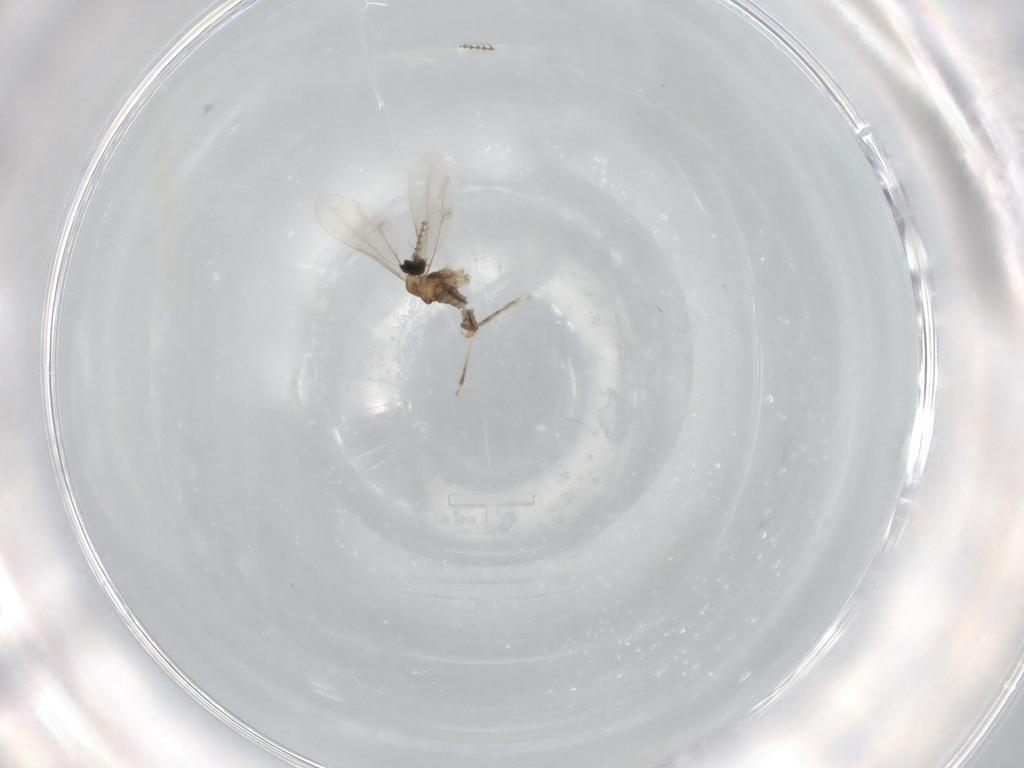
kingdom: Animalia
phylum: Arthropoda
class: Insecta
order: Diptera
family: Cecidomyiidae
